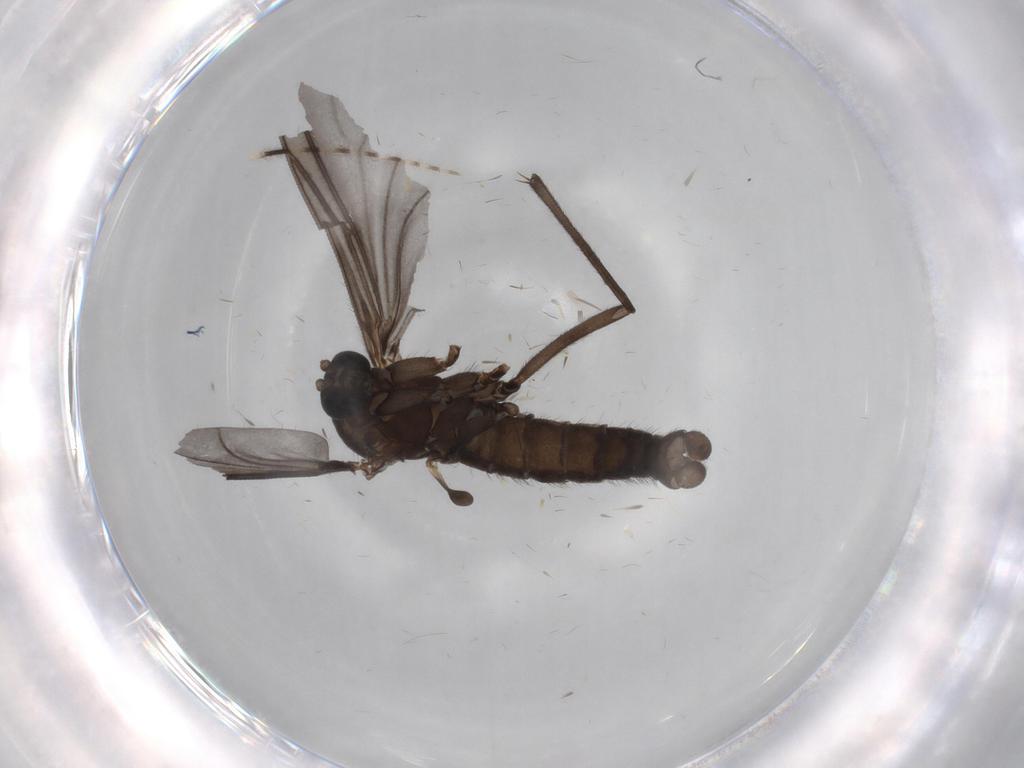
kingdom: Animalia
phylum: Arthropoda
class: Insecta
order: Diptera
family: Sciaridae
